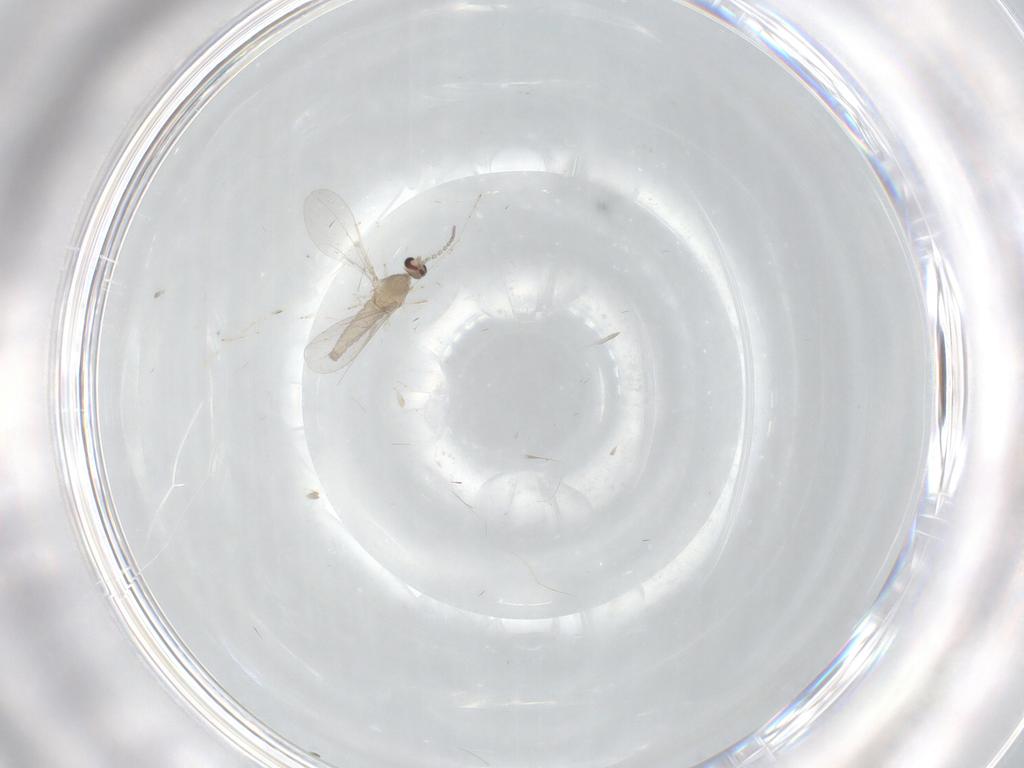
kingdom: Animalia
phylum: Arthropoda
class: Insecta
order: Diptera
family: Cecidomyiidae
